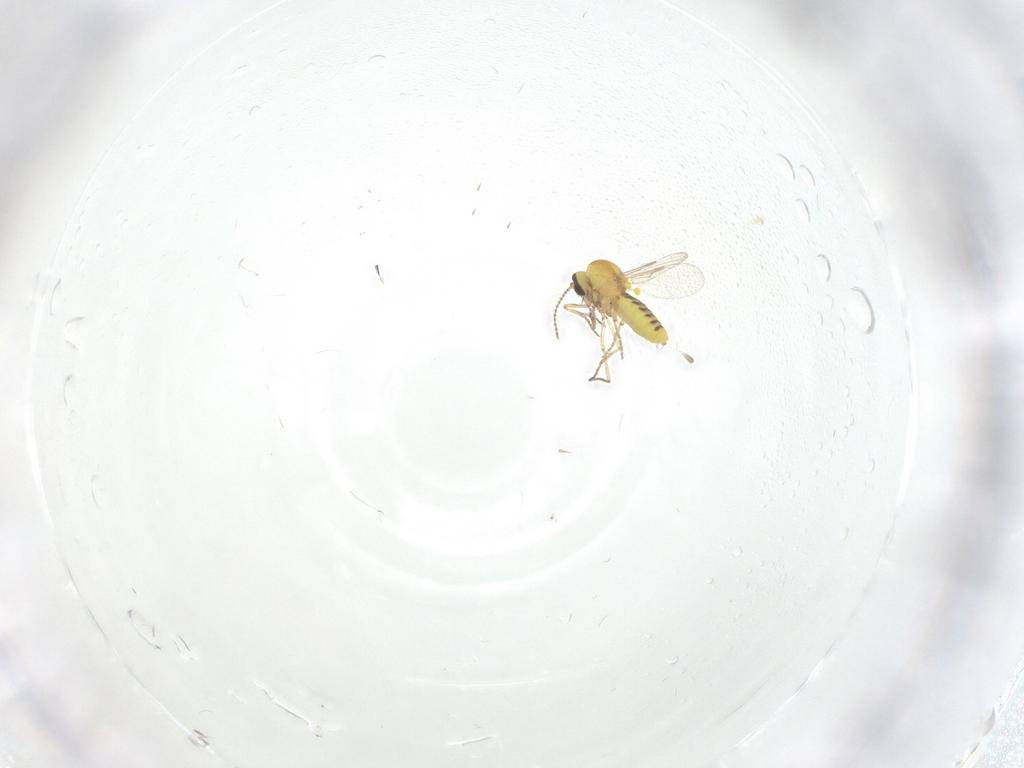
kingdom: Animalia
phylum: Arthropoda
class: Insecta
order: Diptera
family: Ceratopogonidae
